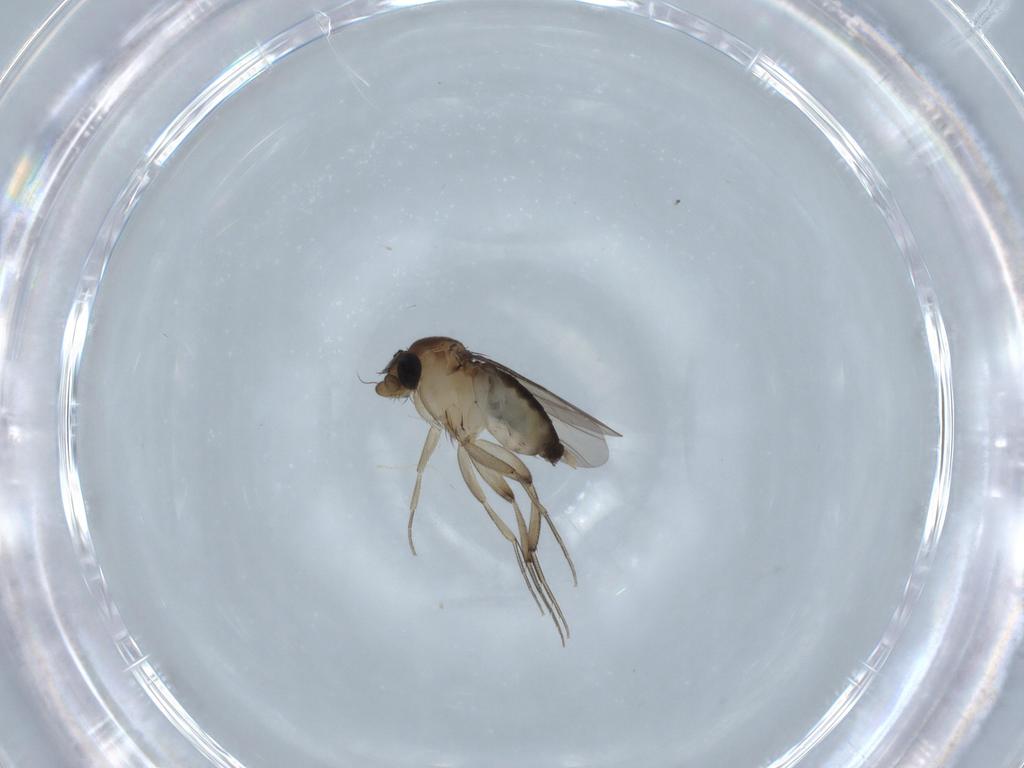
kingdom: Animalia
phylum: Arthropoda
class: Insecta
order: Diptera
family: Phoridae
